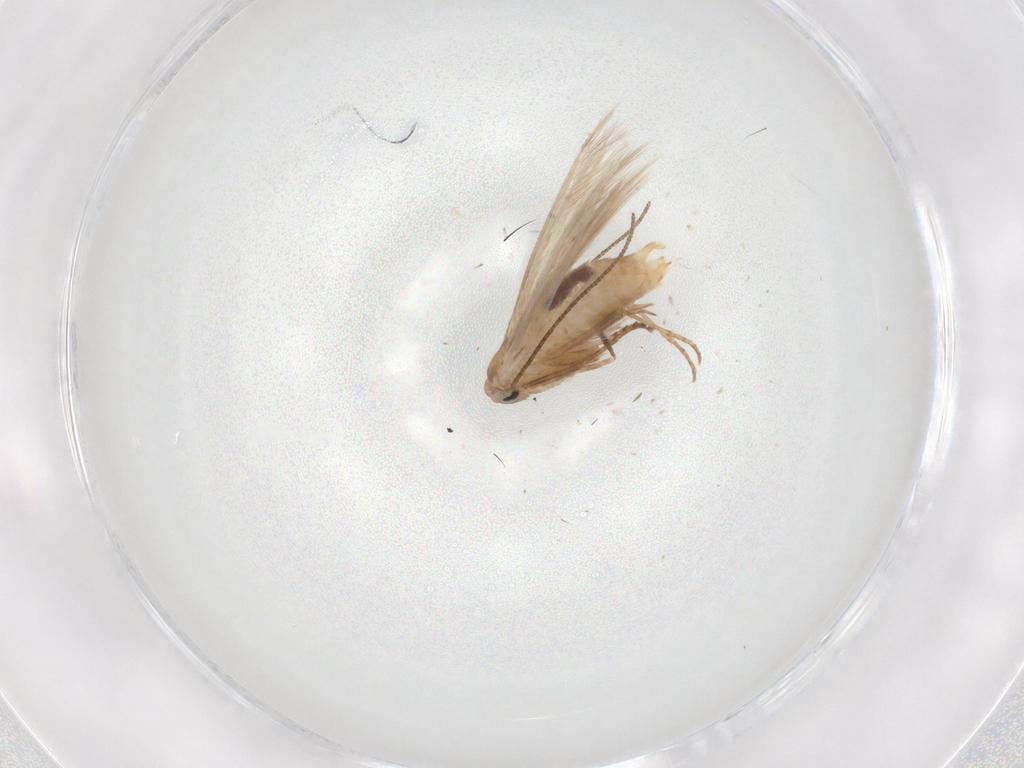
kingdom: Animalia
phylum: Arthropoda
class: Insecta
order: Lepidoptera
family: Bucculatricidae
